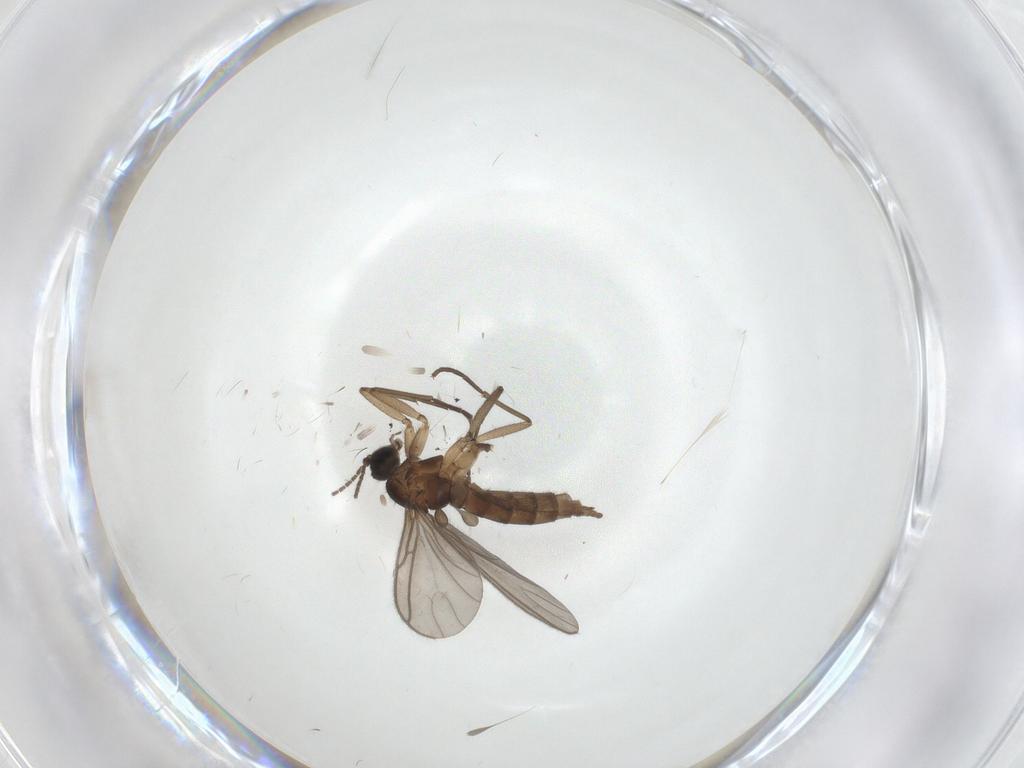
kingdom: Animalia
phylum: Arthropoda
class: Insecta
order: Diptera
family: Sciaridae
